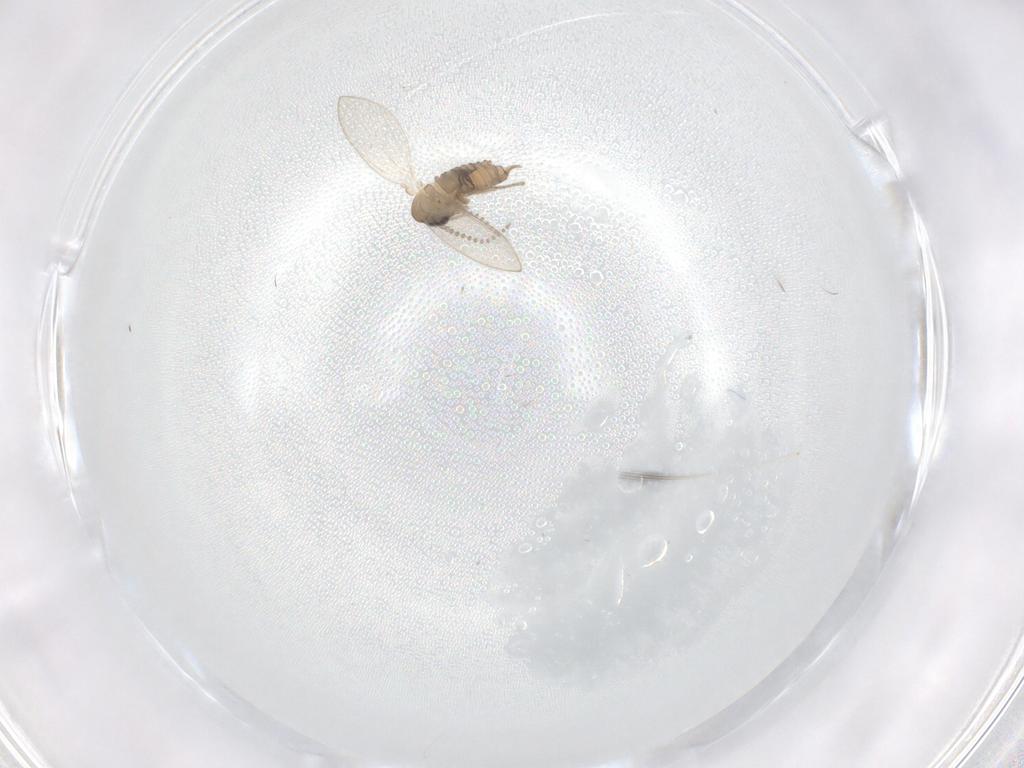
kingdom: Animalia
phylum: Arthropoda
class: Insecta
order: Diptera
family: Psychodidae
